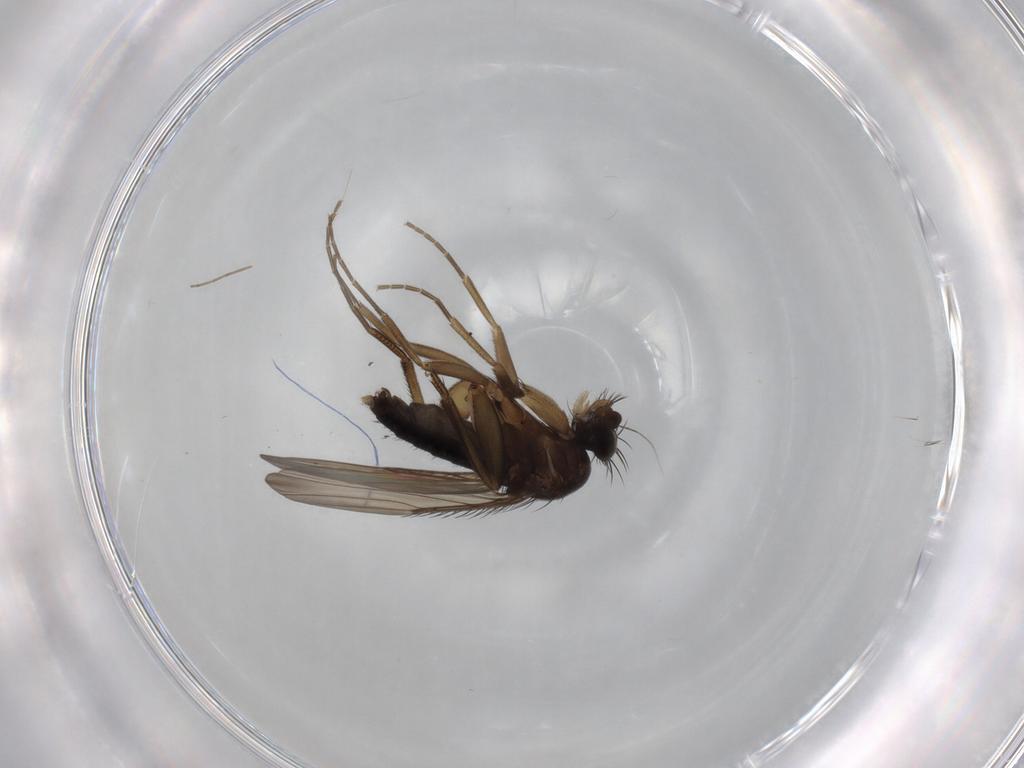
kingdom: Animalia
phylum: Arthropoda
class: Insecta
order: Diptera
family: Phoridae
